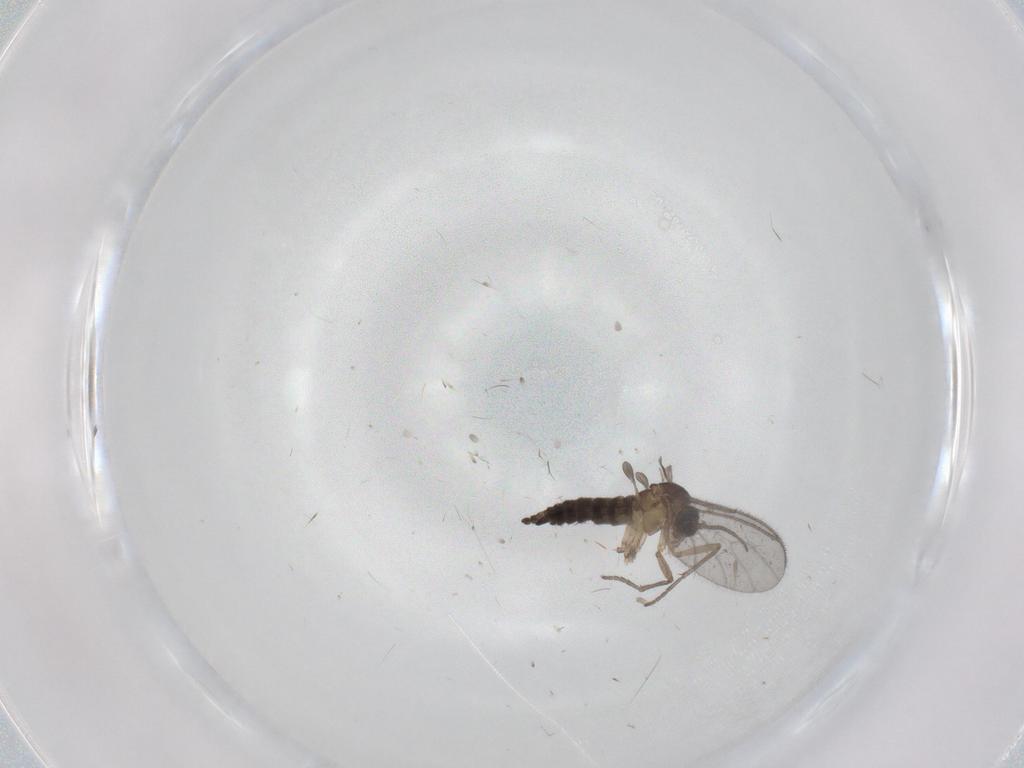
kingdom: Animalia
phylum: Arthropoda
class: Insecta
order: Diptera
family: Sciaridae
